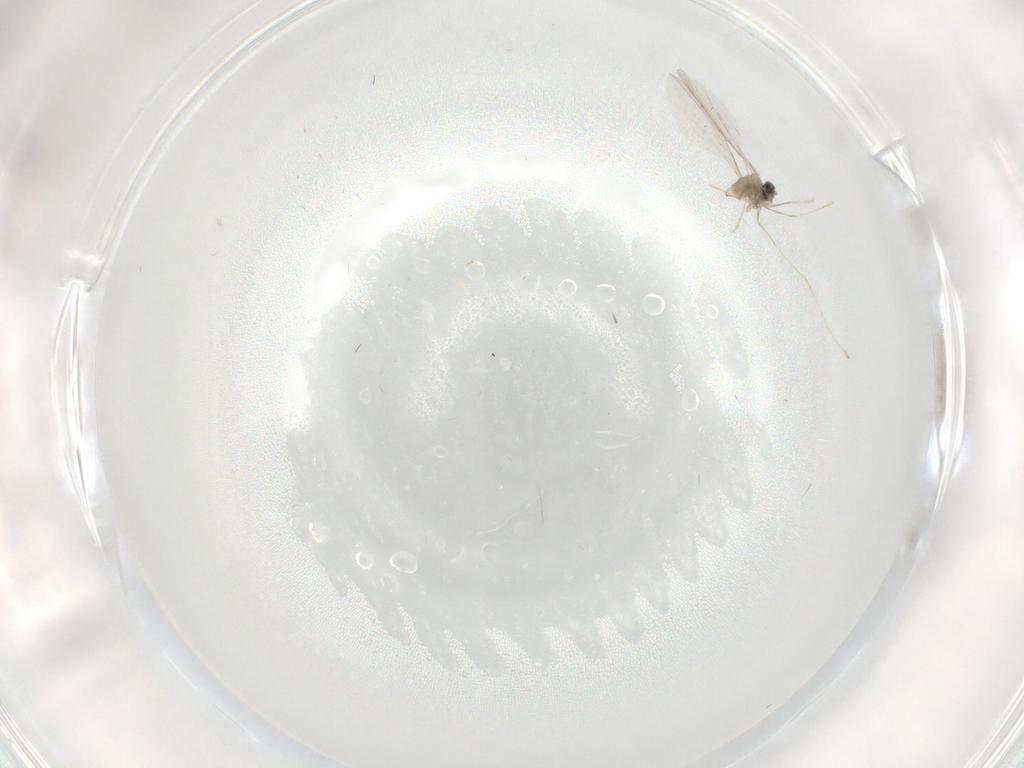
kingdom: Animalia
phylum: Arthropoda
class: Insecta
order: Diptera
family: Cecidomyiidae
